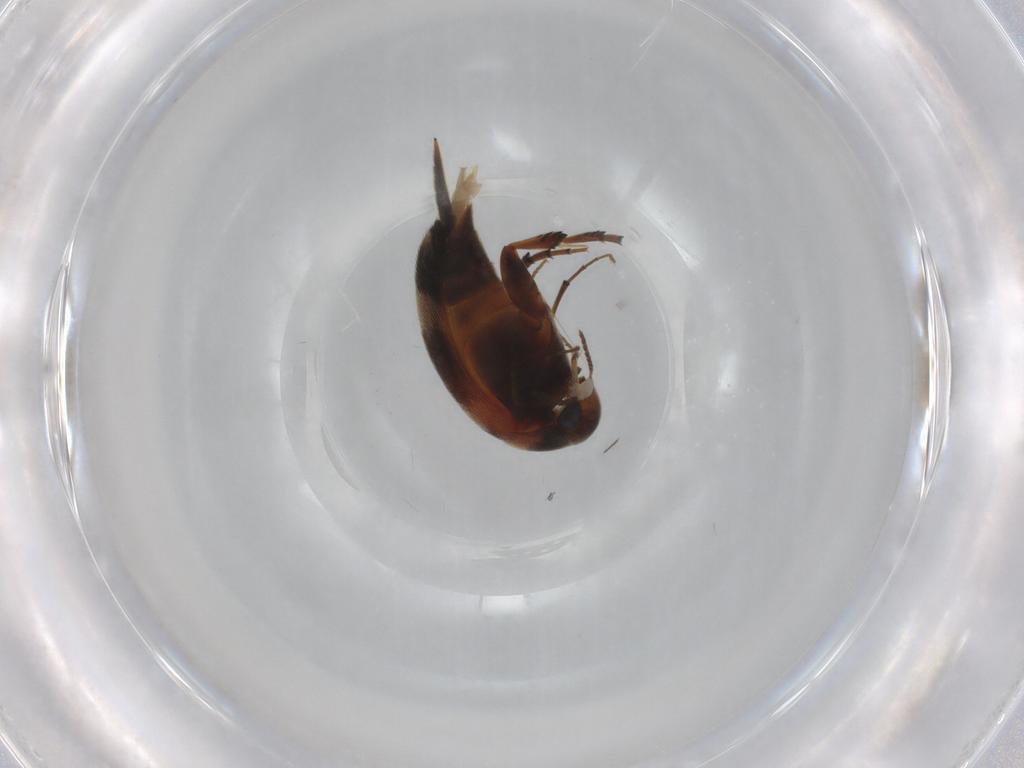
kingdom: Animalia
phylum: Arthropoda
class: Insecta
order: Coleoptera
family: Mordellidae
